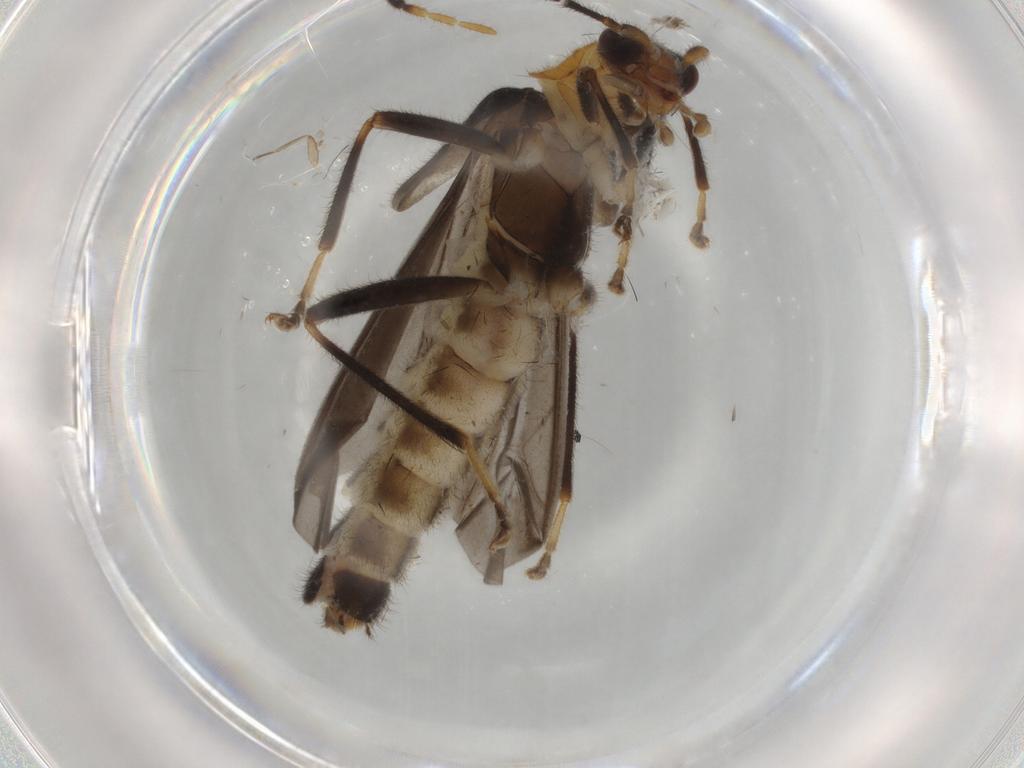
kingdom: Animalia
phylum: Arthropoda
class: Insecta
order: Coleoptera
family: Cantharidae
